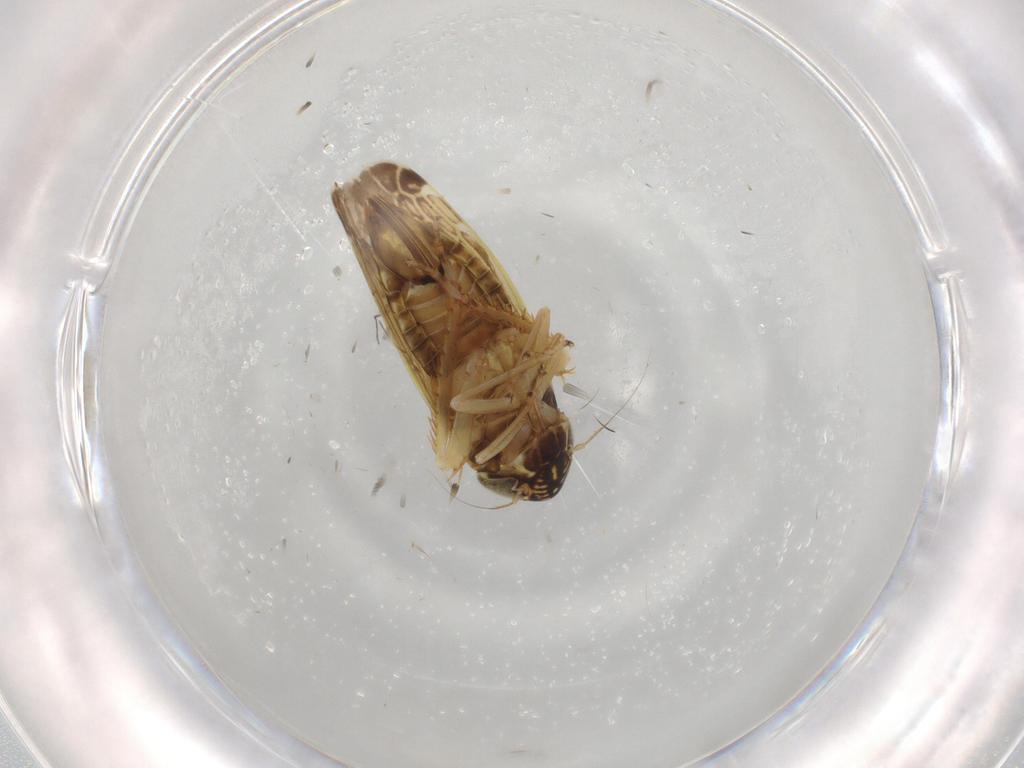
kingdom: Animalia
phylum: Arthropoda
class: Insecta
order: Hemiptera
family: Cicadellidae
